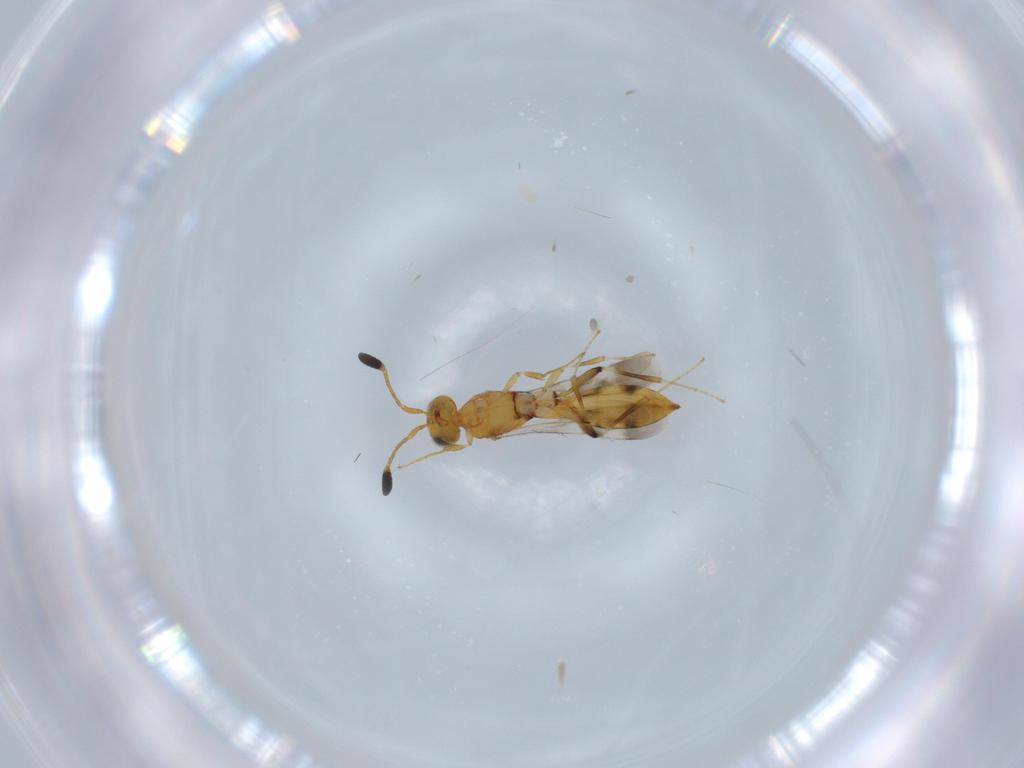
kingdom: Animalia
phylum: Arthropoda
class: Insecta
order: Hymenoptera
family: Scelionidae
